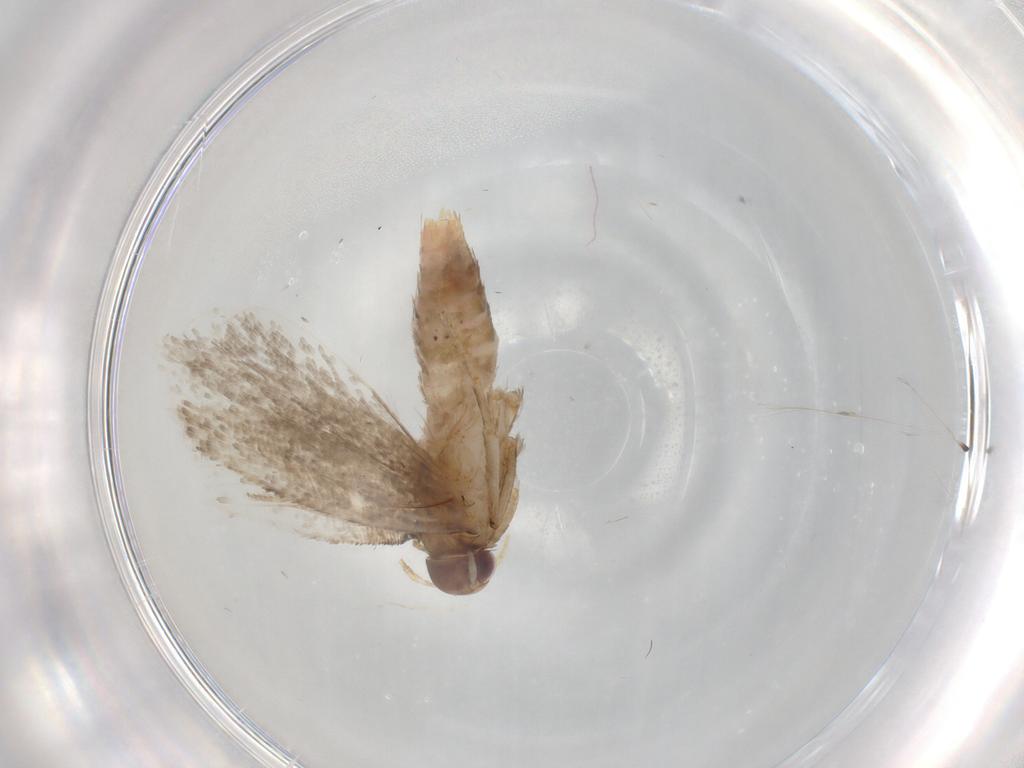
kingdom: Animalia
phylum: Arthropoda
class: Insecta
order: Lepidoptera
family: Gelechiidae
